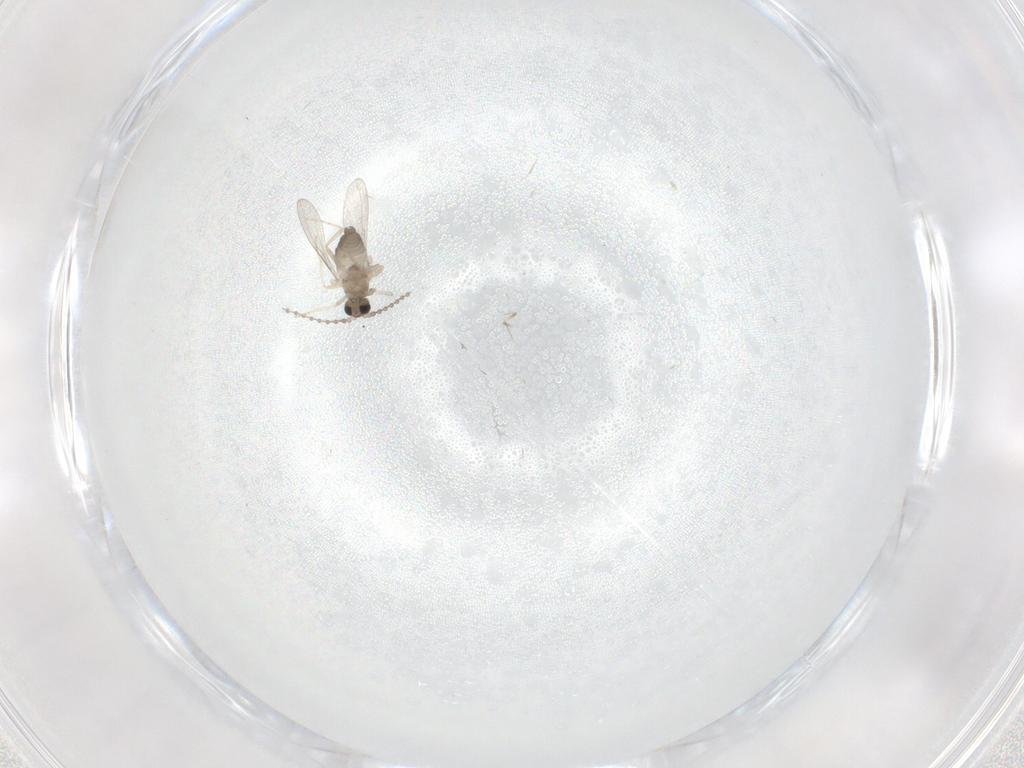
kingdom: Animalia
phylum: Arthropoda
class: Insecta
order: Diptera
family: Cecidomyiidae
